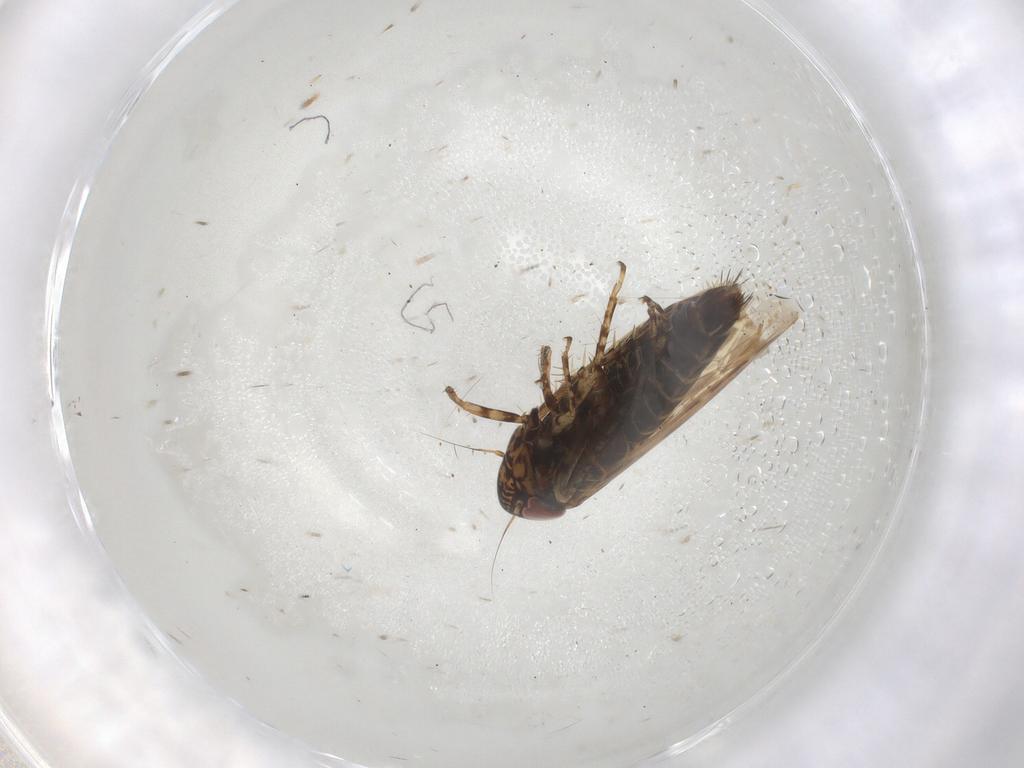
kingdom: Animalia
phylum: Arthropoda
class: Insecta
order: Hemiptera
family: Cicadellidae
